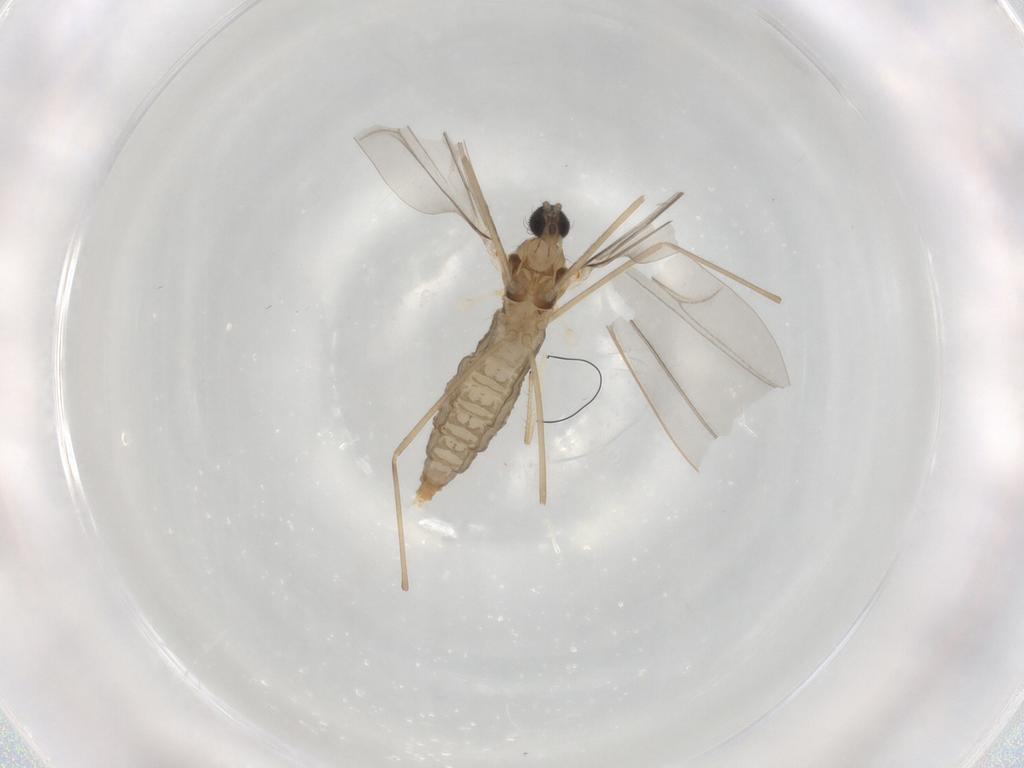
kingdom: Animalia
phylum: Arthropoda
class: Insecta
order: Diptera
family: Cecidomyiidae
